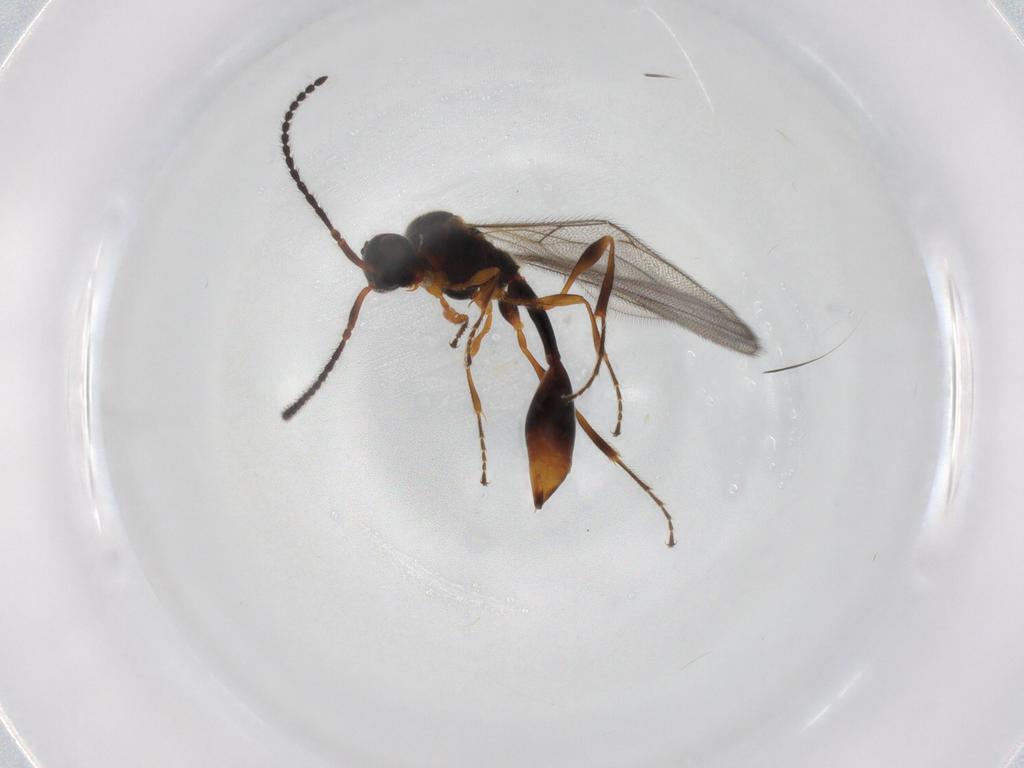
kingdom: Animalia
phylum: Arthropoda
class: Insecta
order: Hymenoptera
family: Diapriidae
